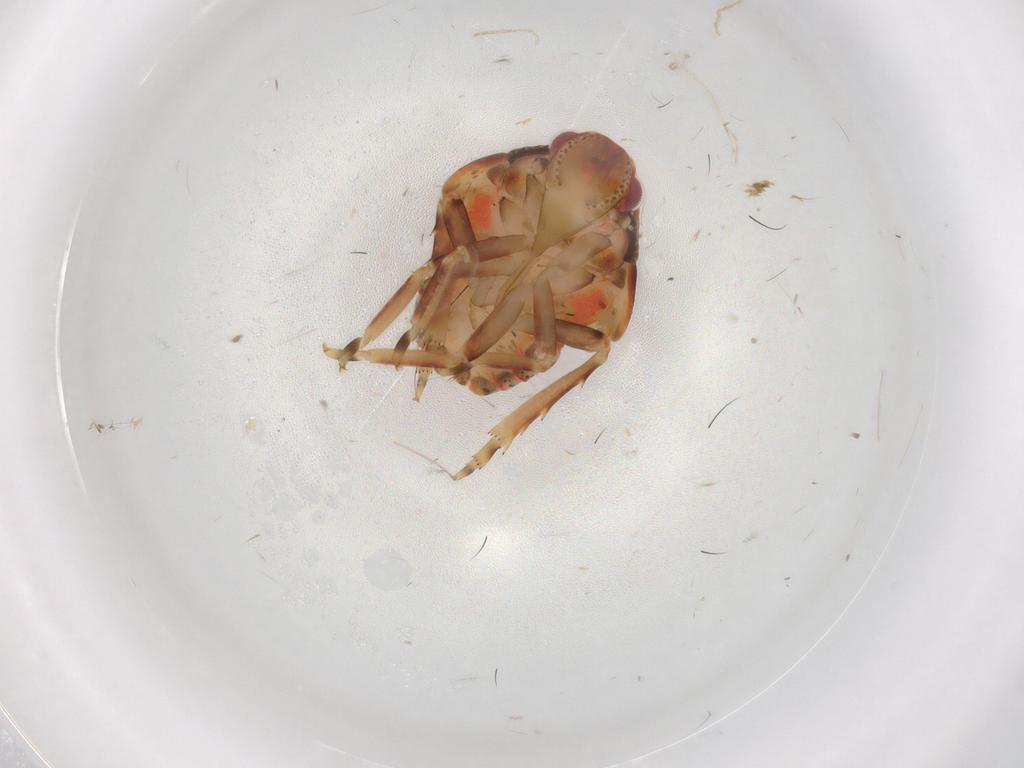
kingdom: Animalia
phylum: Arthropoda
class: Insecta
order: Hemiptera
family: Flatidae
